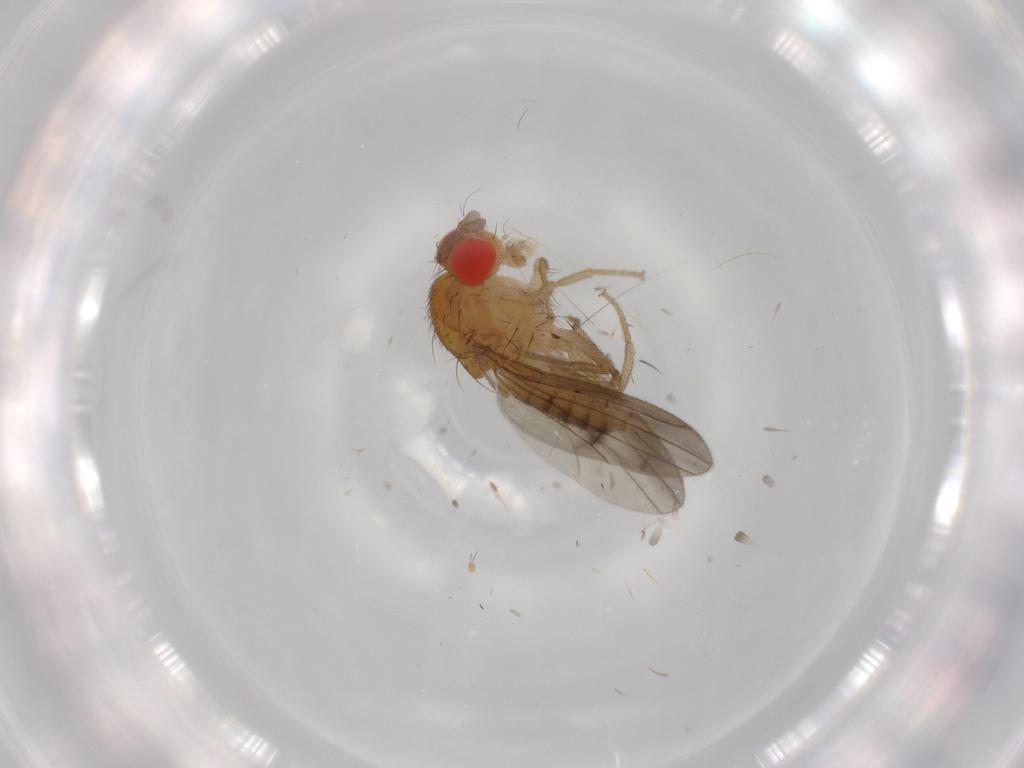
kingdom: Animalia
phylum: Arthropoda
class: Insecta
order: Diptera
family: Drosophilidae
